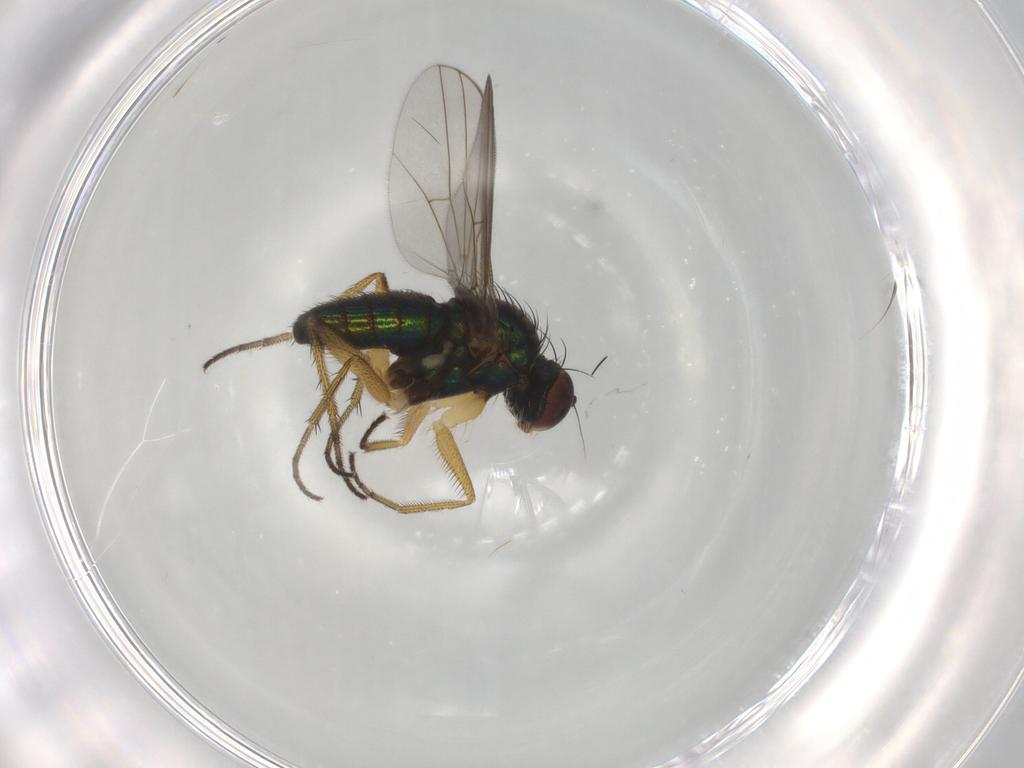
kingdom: Animalia
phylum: Arthropoda
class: Insecta
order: Diptera
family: Dolichopodidae
